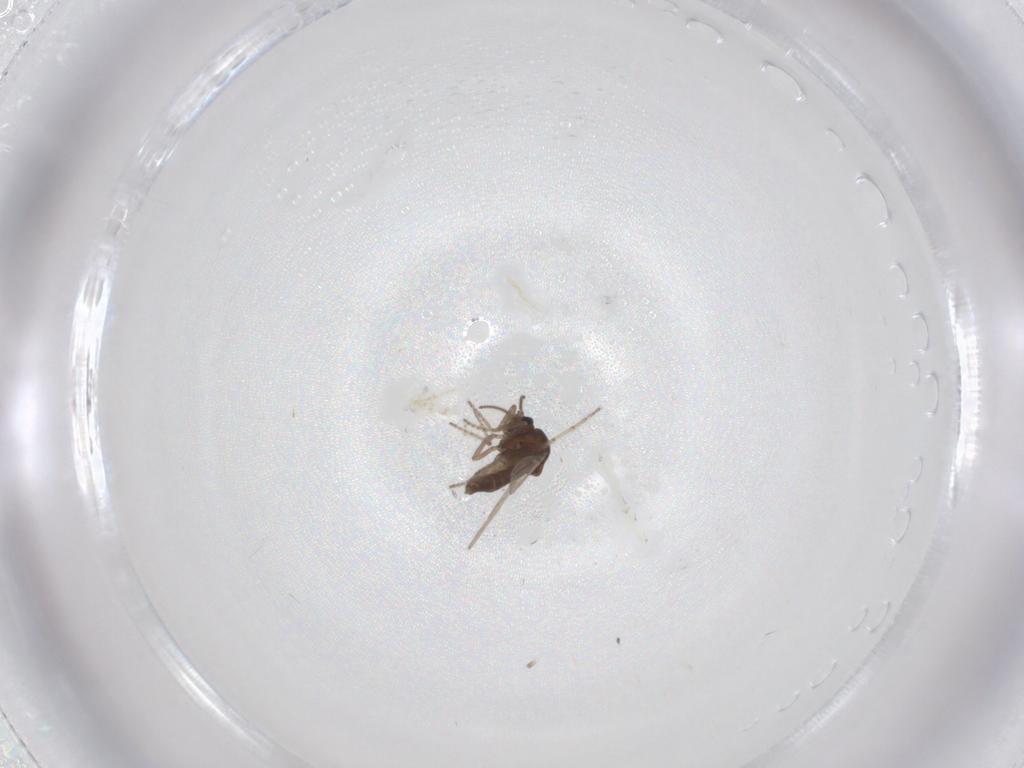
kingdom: Animalia
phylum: Arthropoda
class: Insecta
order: Diptera
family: Ceratopogonidae
